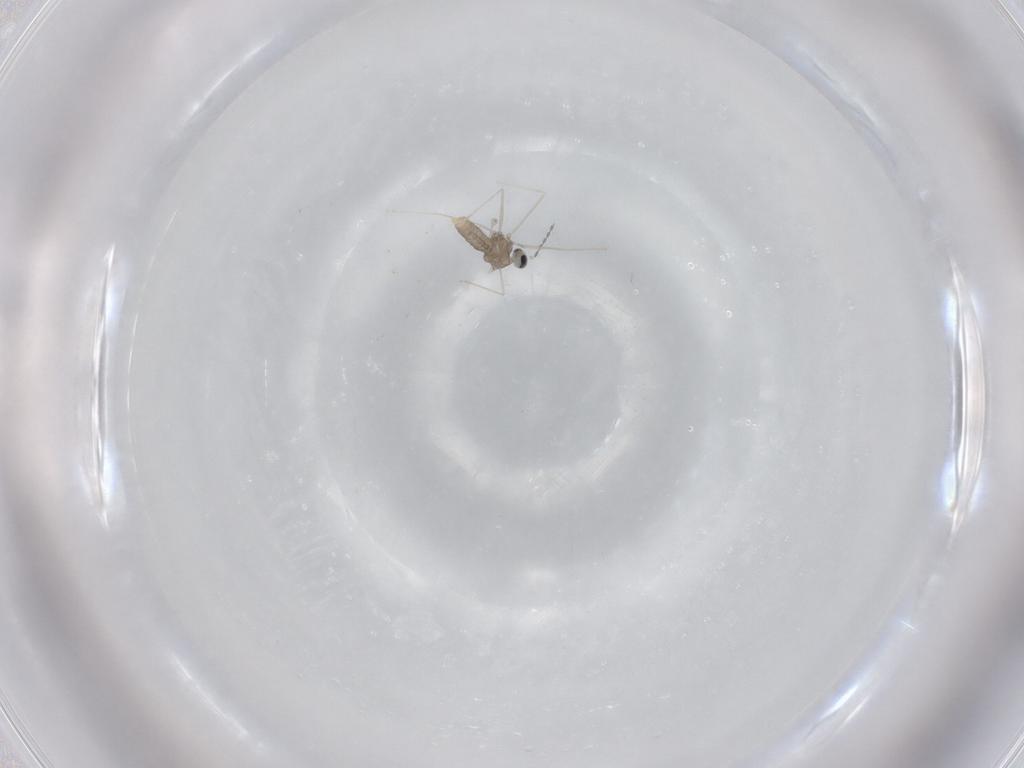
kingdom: Animalia
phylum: Arthropoda
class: Insecta
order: Diptera
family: Cecidomyiidae
